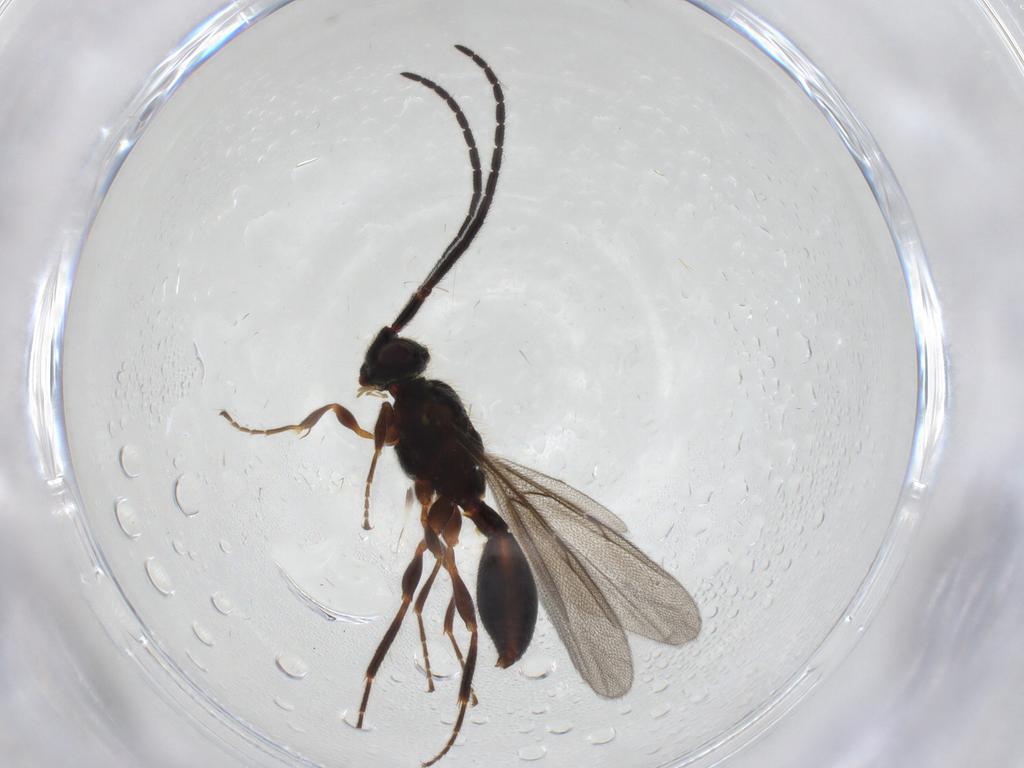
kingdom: Animalia
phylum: Arthropoda
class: Insecta
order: Hymenoptera
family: Diapriidae
